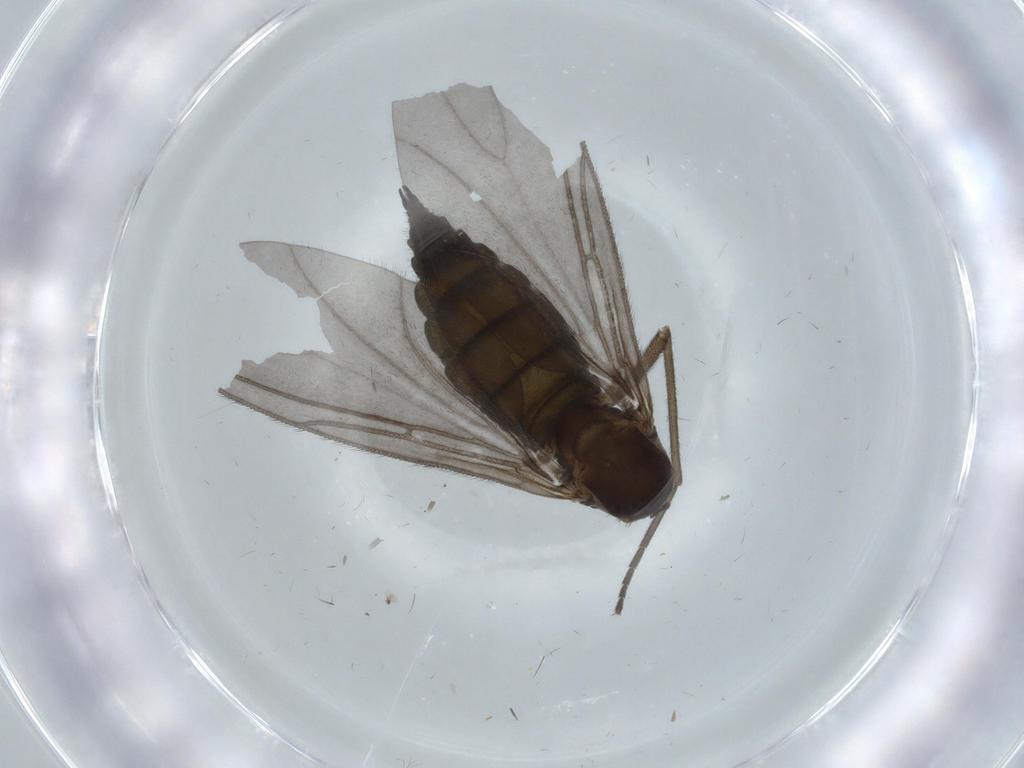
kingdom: Animalia
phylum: Arthropoda
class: Insecta
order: Diptera
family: Sciaridae
